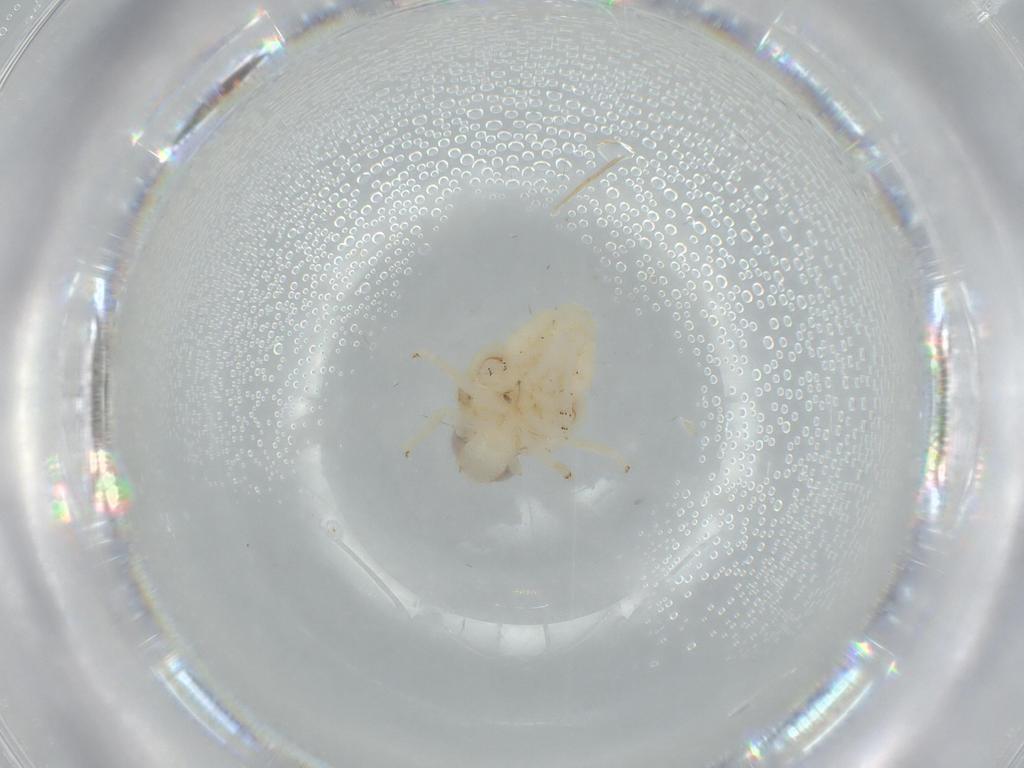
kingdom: Animalia
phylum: Arthropoda
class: Insecta
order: Hemiptera
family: Nogodinidae
